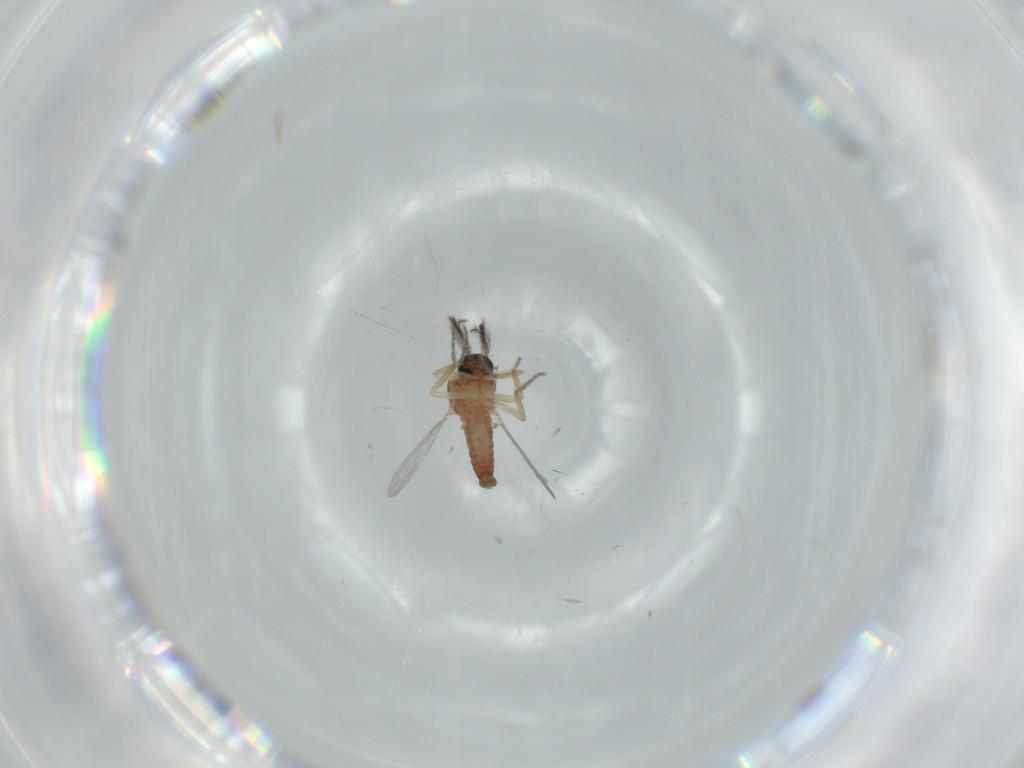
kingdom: Animalia
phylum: Arthropoda
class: Insecta
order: Diptera
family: Ceratopogonidae
